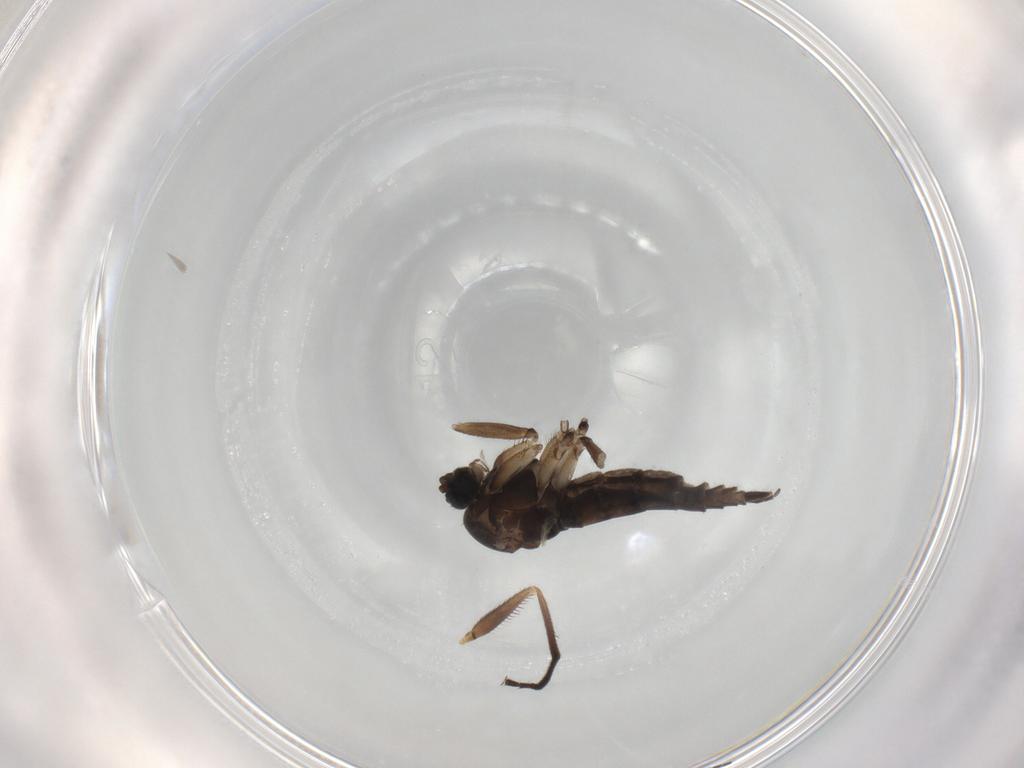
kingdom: Animalia
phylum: Arthropoda
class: Insecta
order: Diptera
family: Sciaridae
